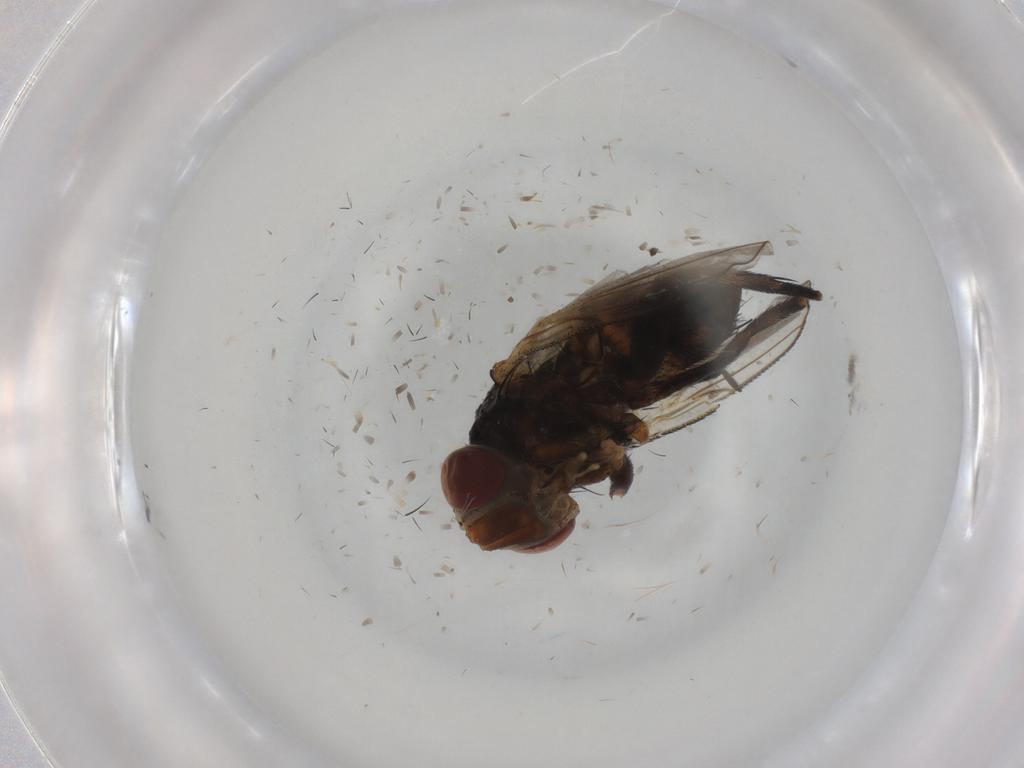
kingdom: Animalia
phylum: Arthropoda
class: Insecta
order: Diptera
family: Glossinidae
